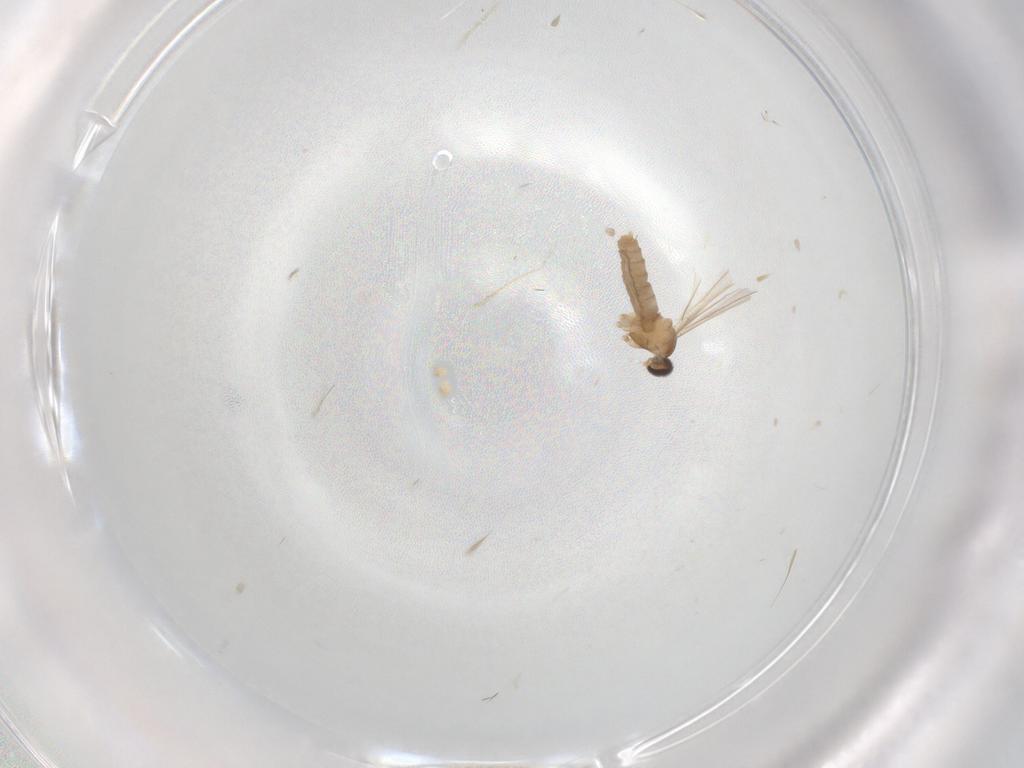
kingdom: Animalia
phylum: Arthropoda
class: Insecta
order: Diptera
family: Cecidomyiidae
